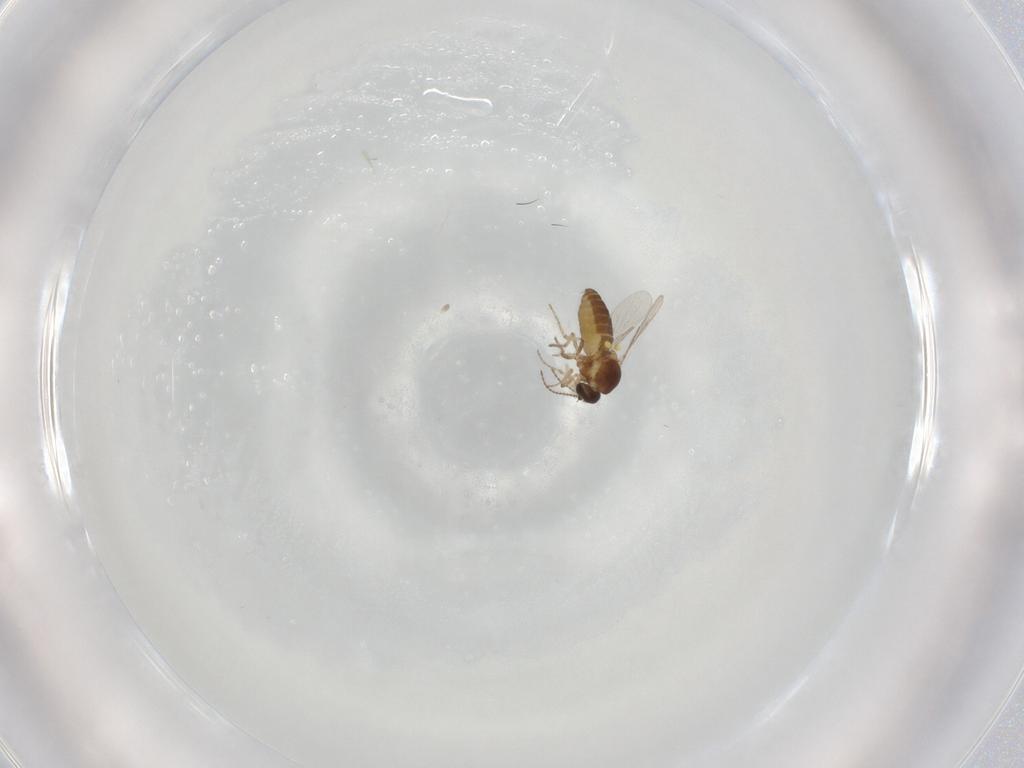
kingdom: Animalia
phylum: Arthropoda
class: Insecta
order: Diptera
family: Ceratopogonidae
